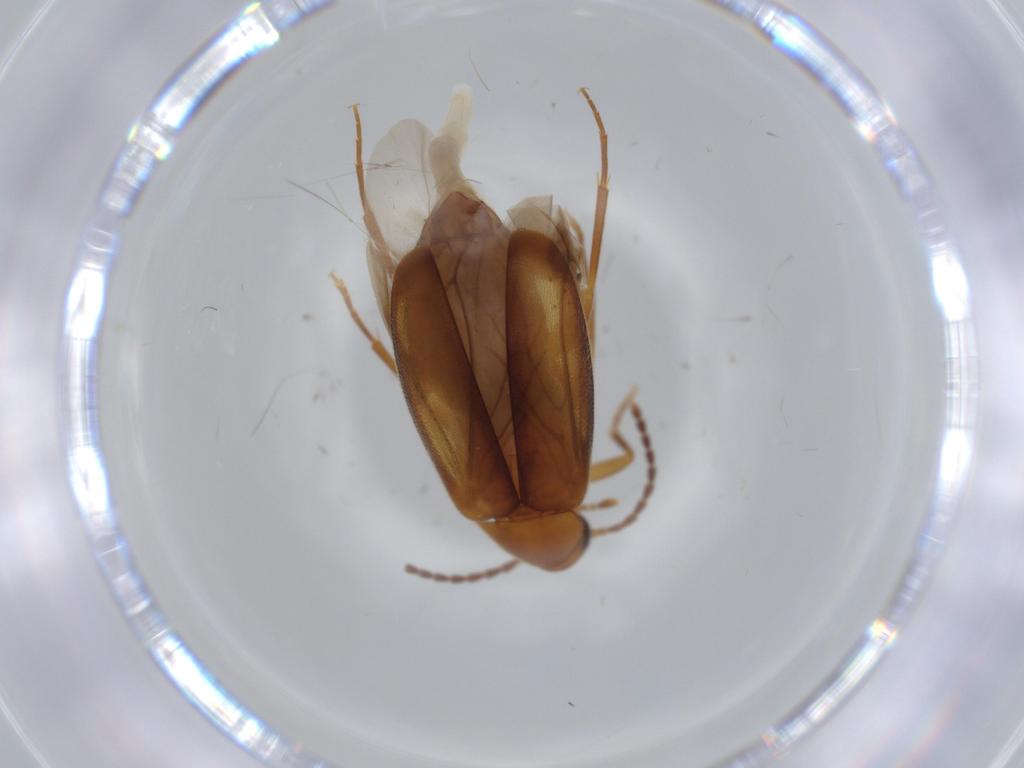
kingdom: Animalia
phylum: Arthropoda
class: Insecta
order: Coleoptera
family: Scraptiidae
